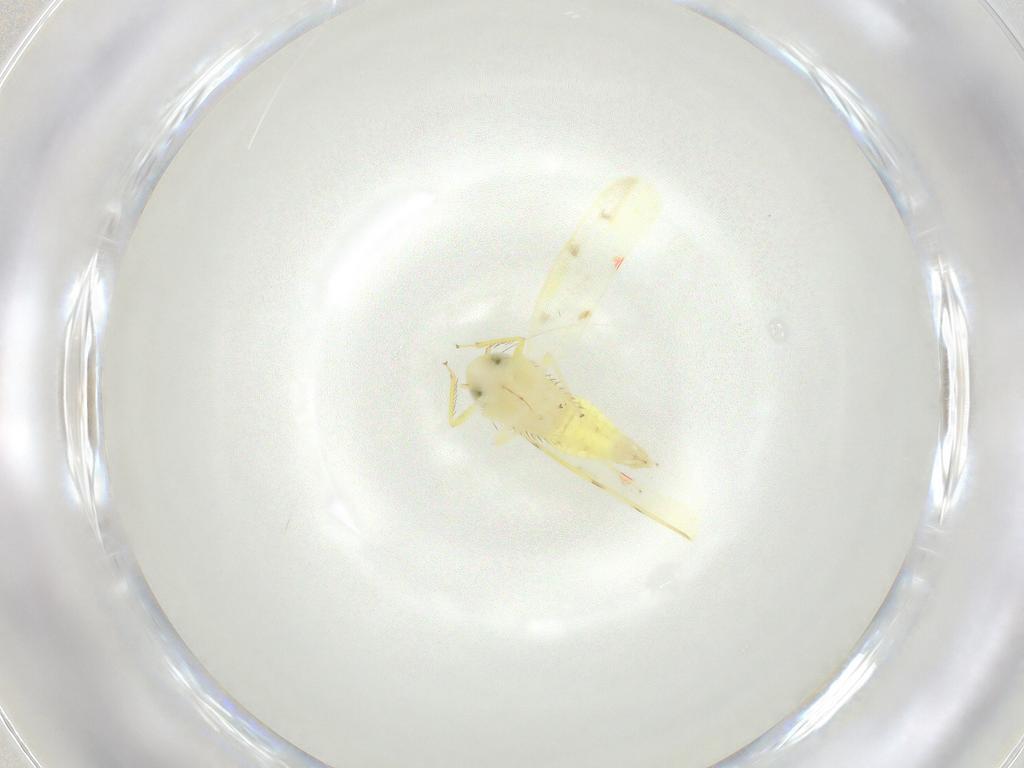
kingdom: Animalia
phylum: Arthropoda
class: Insecta
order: Hemiptera
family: Cicadellidae
